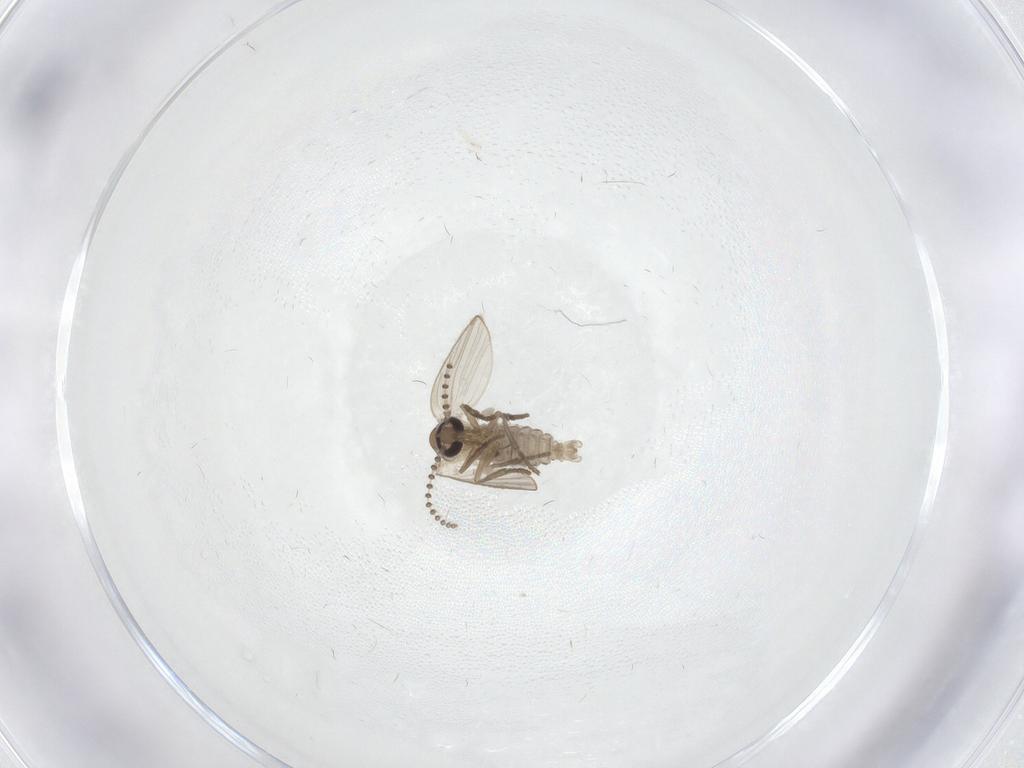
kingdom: Animalia
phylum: Arthropoda
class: Insecta
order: Diptera
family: Psychodidae
